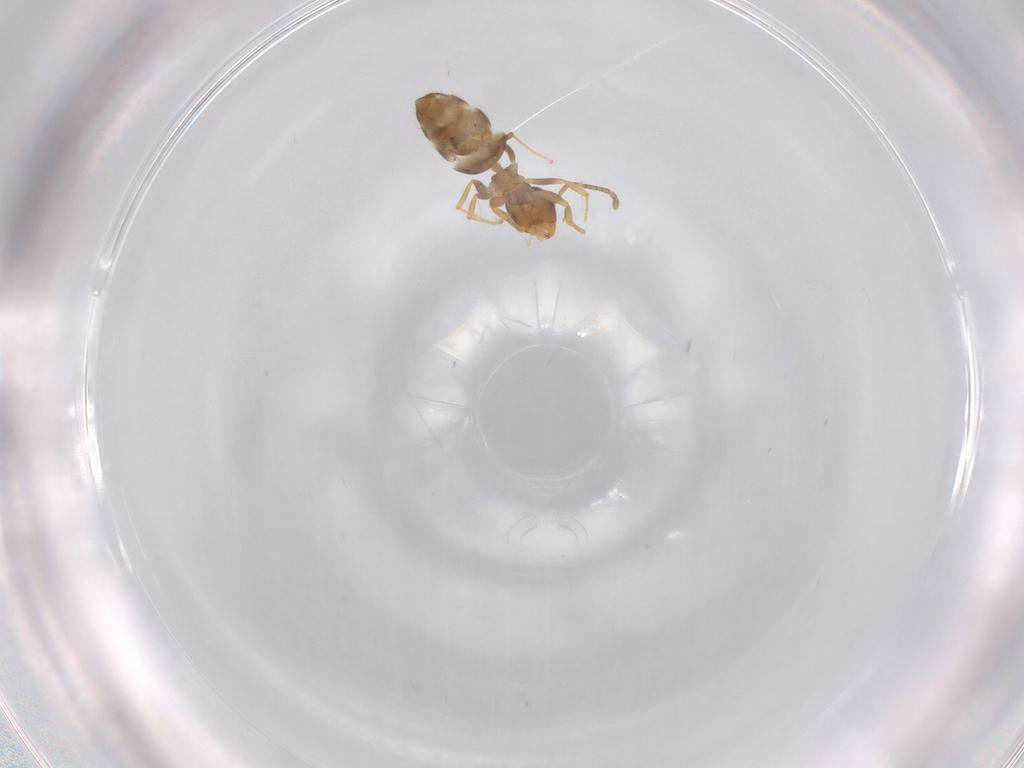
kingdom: Animalia
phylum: Arthropoda
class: Insecta
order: Hymenoptera
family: Formicidae
